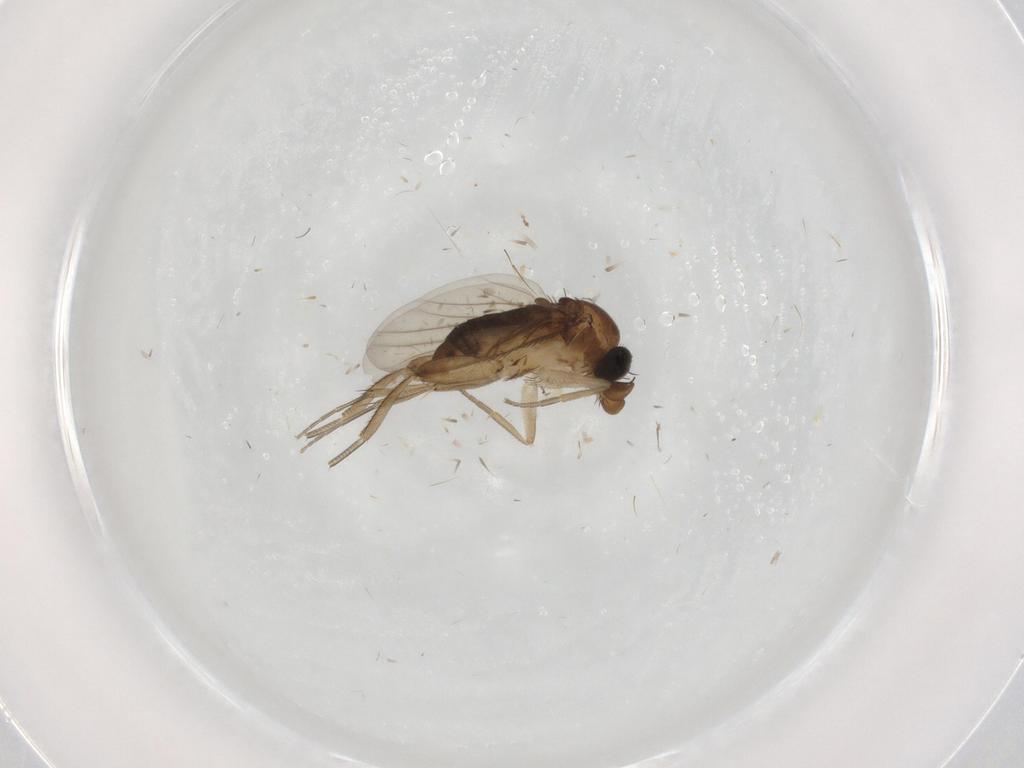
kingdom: Animalia
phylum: Arthropoda
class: Insecta
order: Diptera
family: Phoridae
